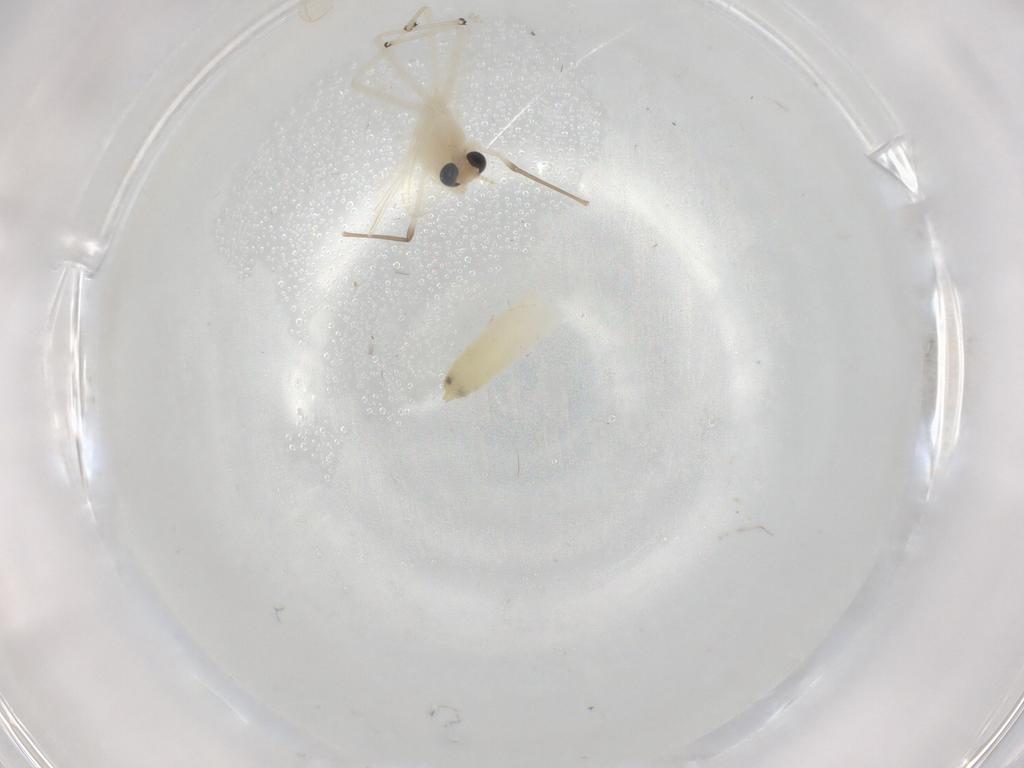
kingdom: Animalia
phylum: Arthropoda
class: Insecta
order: Diptera
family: Chironomidae
